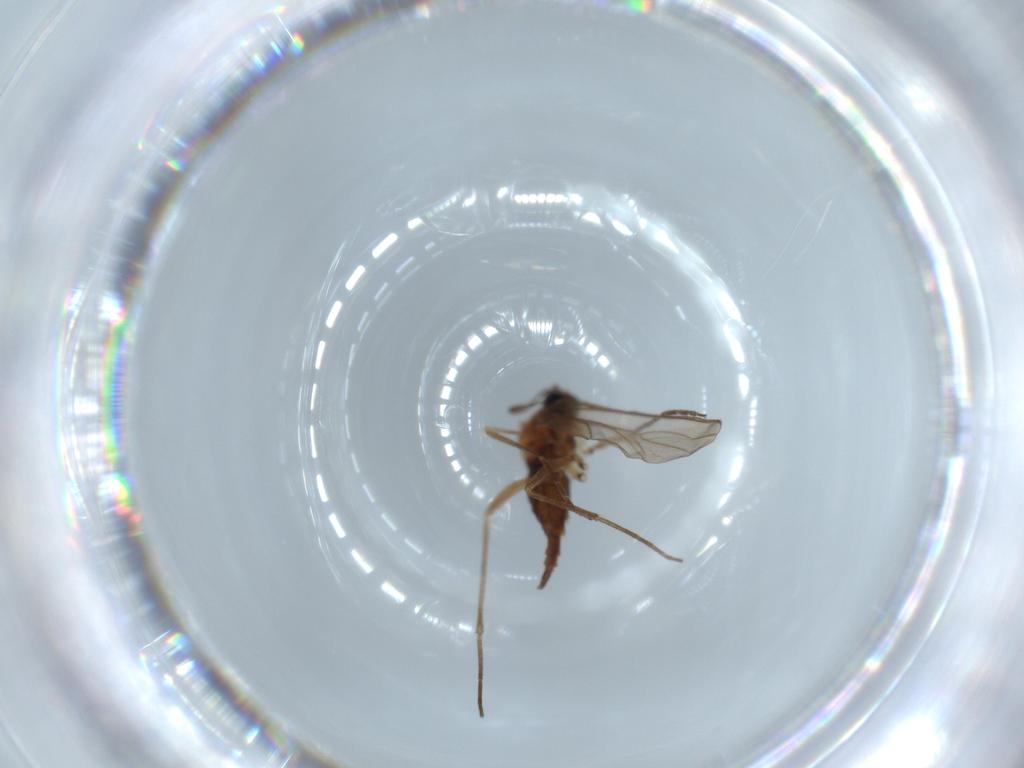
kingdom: Animalia
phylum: Arthropoda
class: Insecta
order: Diptera
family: Sciaridae
